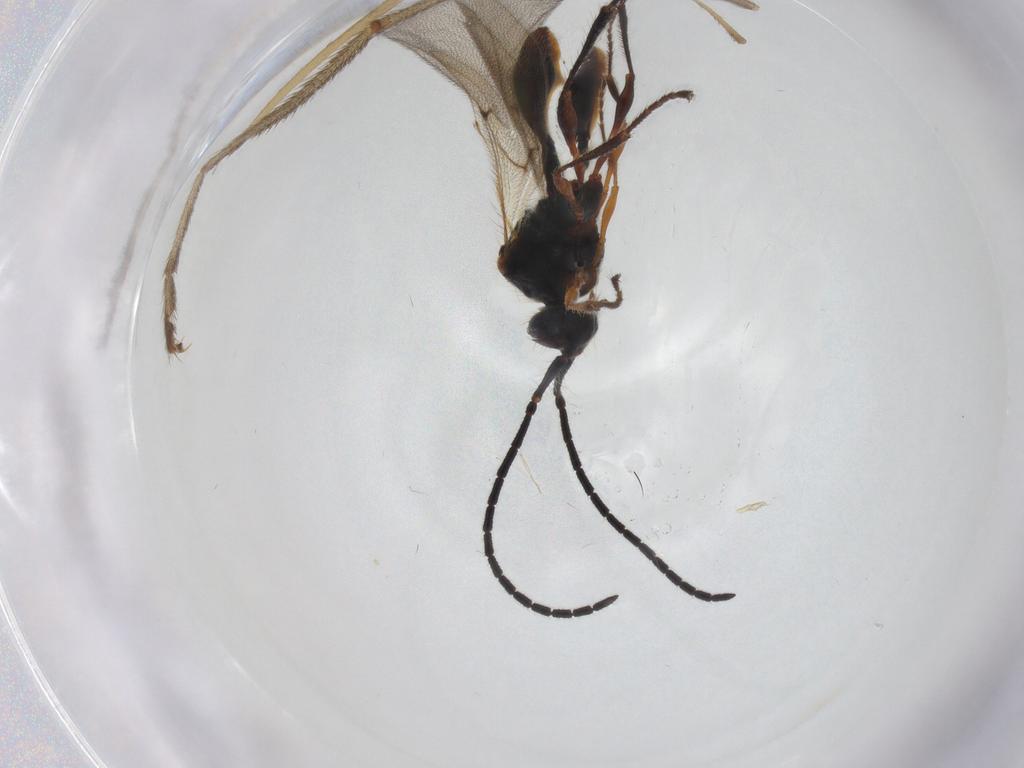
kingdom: Animalia
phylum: Arthropoda
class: Insecta
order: Hymenoptera
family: Diapriidae
